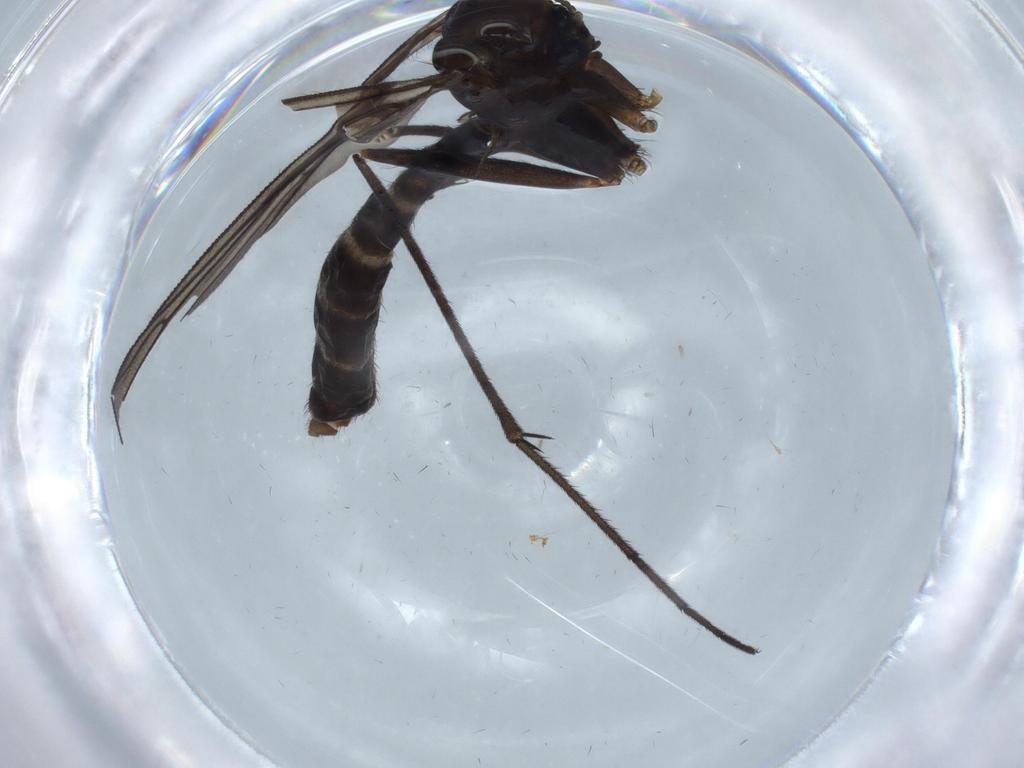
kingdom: Animalia
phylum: Arthropoda
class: Insecta
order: Diptera
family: Ditomyiidae
